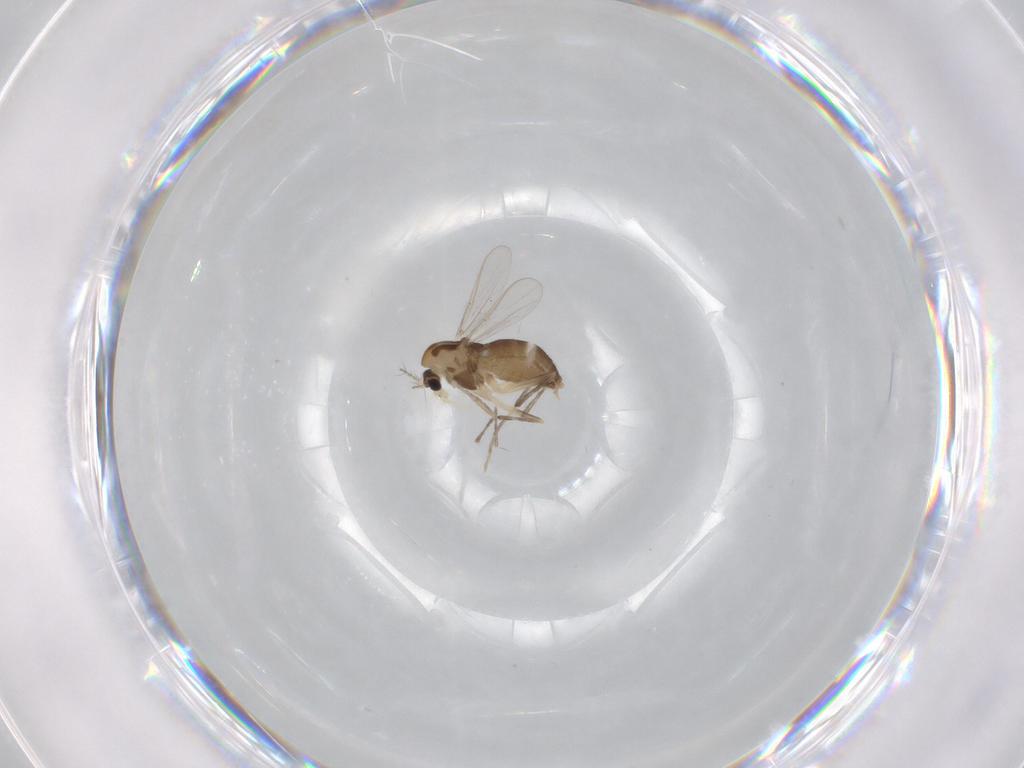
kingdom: Animalia
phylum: Arthropoda
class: Insecta
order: Diptera
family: Chironomidae
